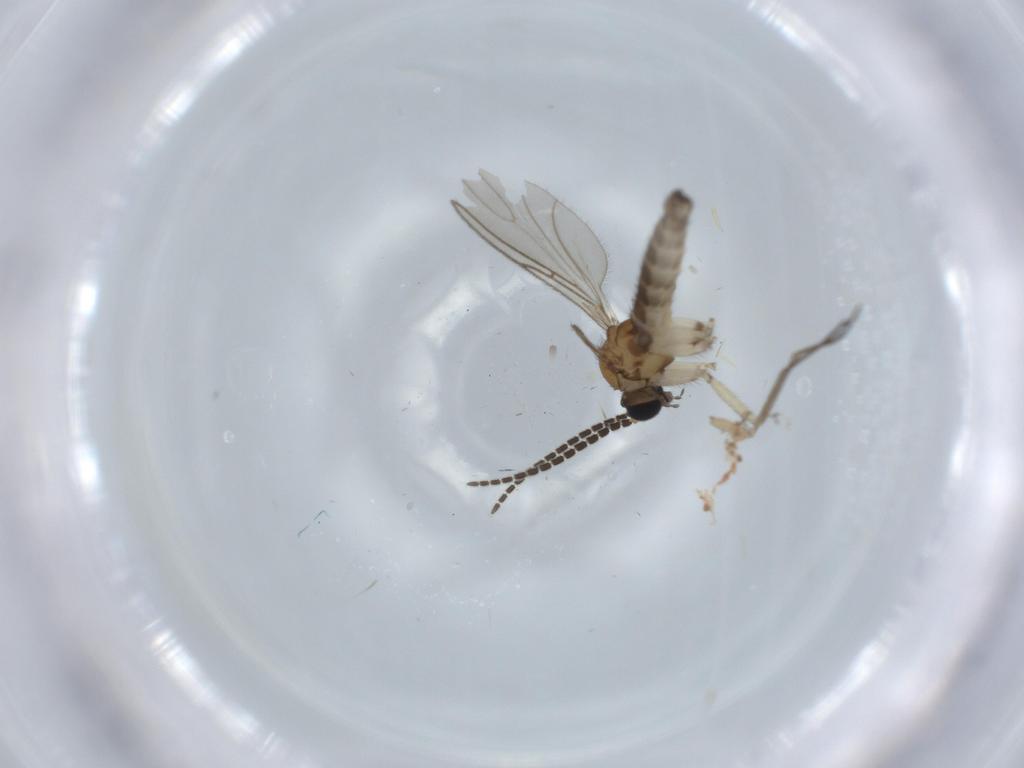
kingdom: Animalia
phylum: Arthropoda
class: Insecta
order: Diptera
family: Sciaridae
